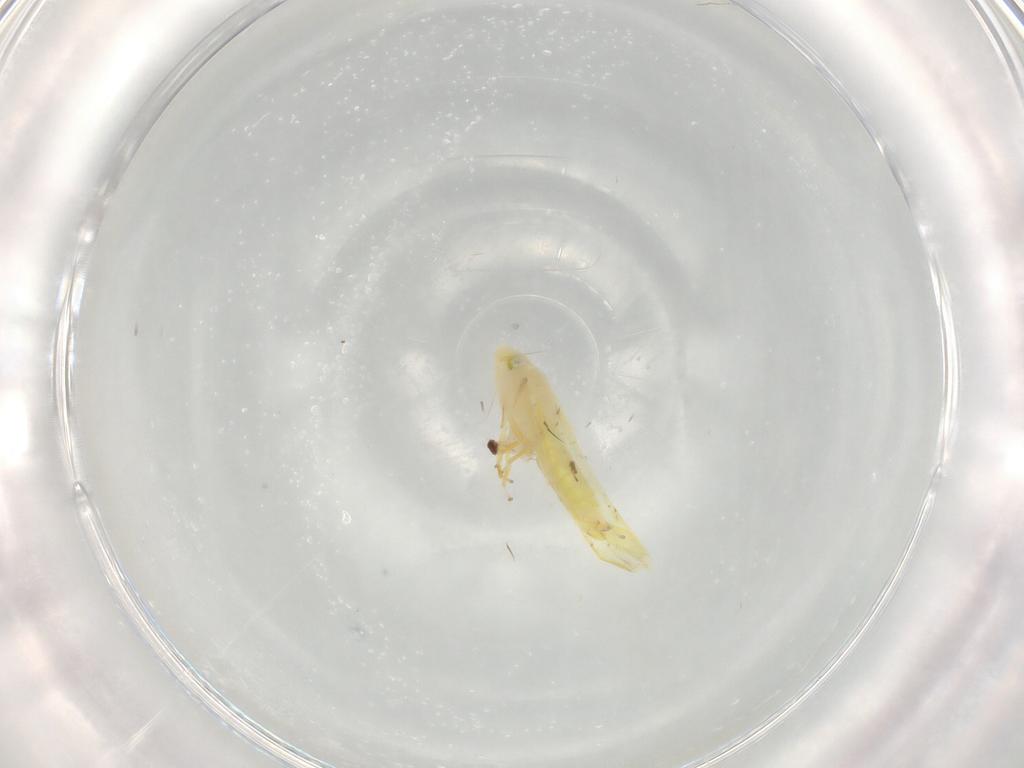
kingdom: Animalia
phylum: Arthropoda
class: Insecta
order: Hemiptera
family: Cicadellidae
